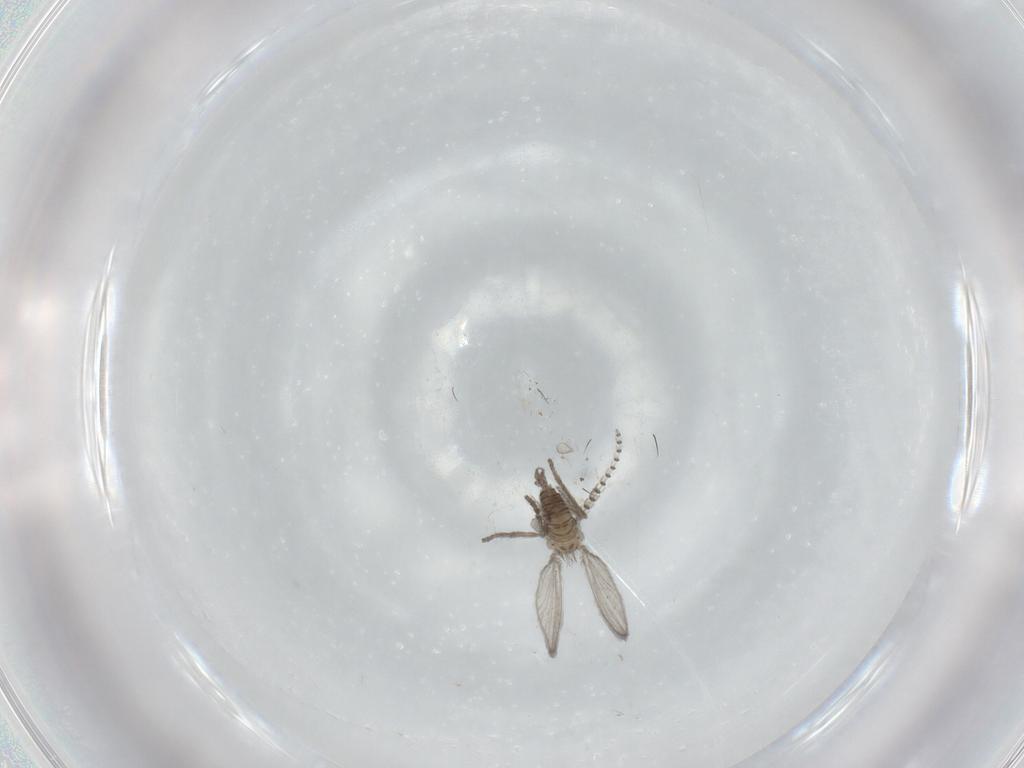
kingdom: Animalia
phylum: Arthropoda
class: Insecta
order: Diptera
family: Psychodidae
